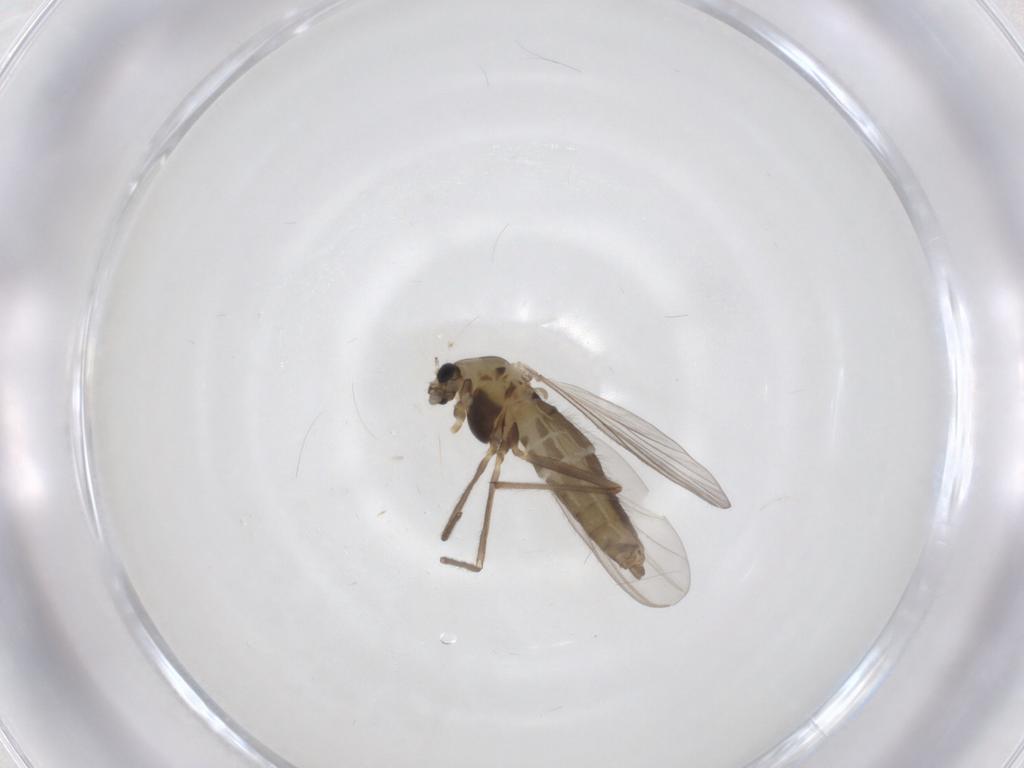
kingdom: Animalia
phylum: Arthropoda
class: Insecta
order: Diptera
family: Chironomidae
